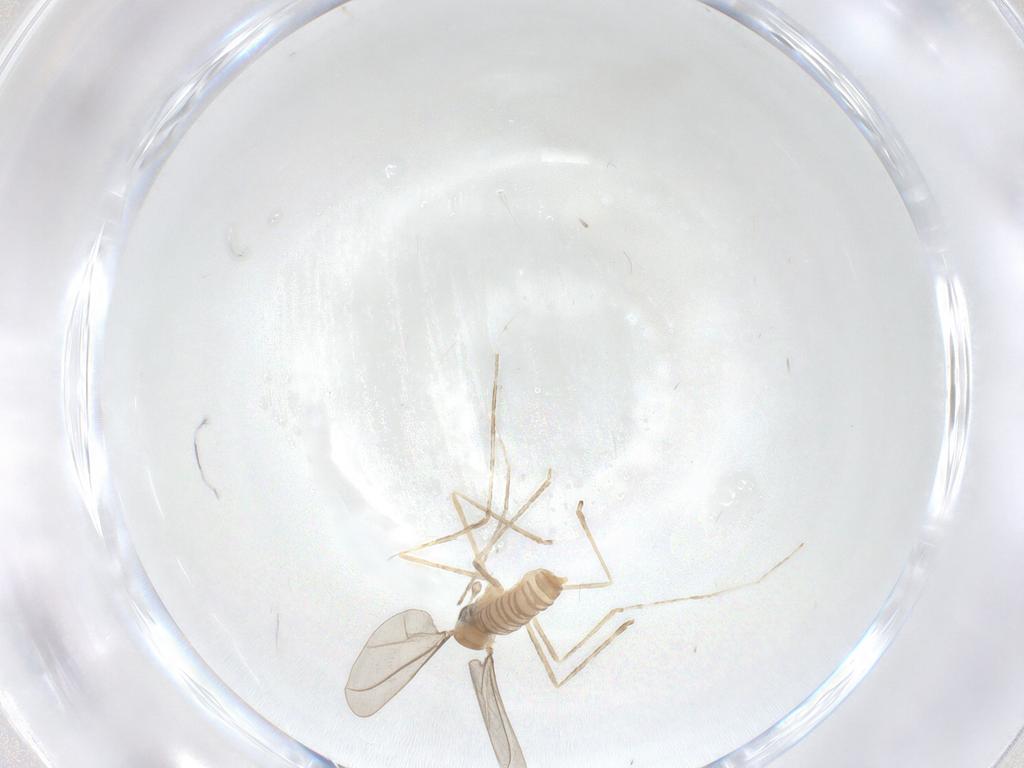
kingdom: Animalia
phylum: Arthropoda
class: Insecta
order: Diptera
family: Cecidomyiidae
